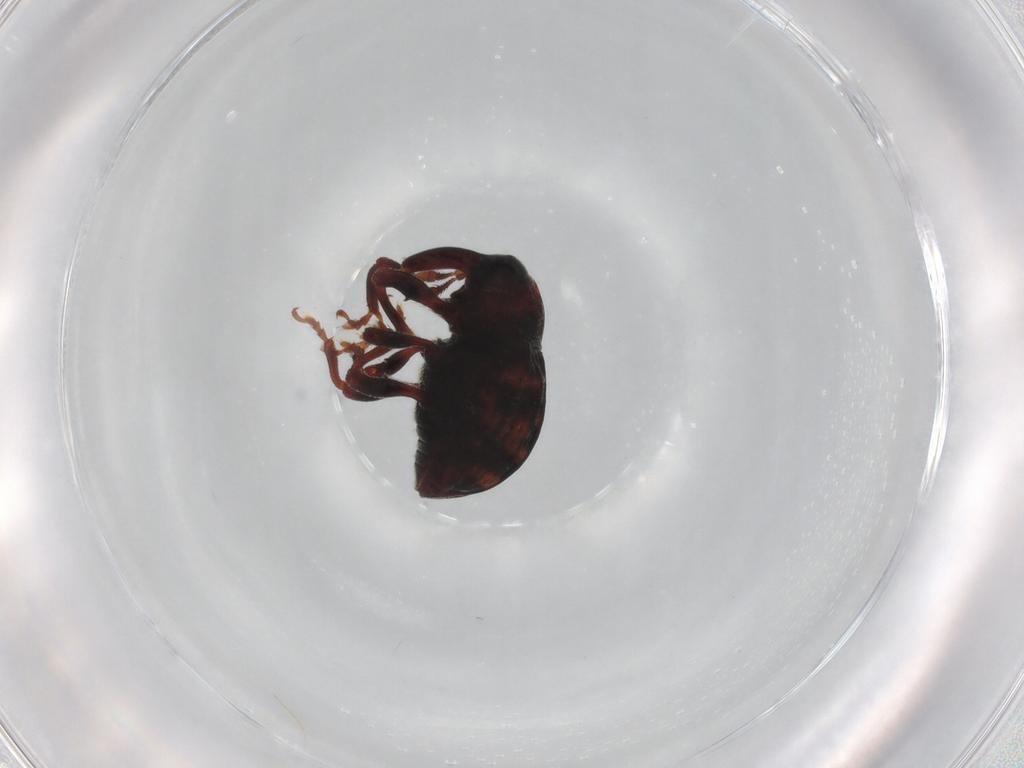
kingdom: Animalia
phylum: Arthropoda
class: Insecta
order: Coleoptera
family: Curculionidae
